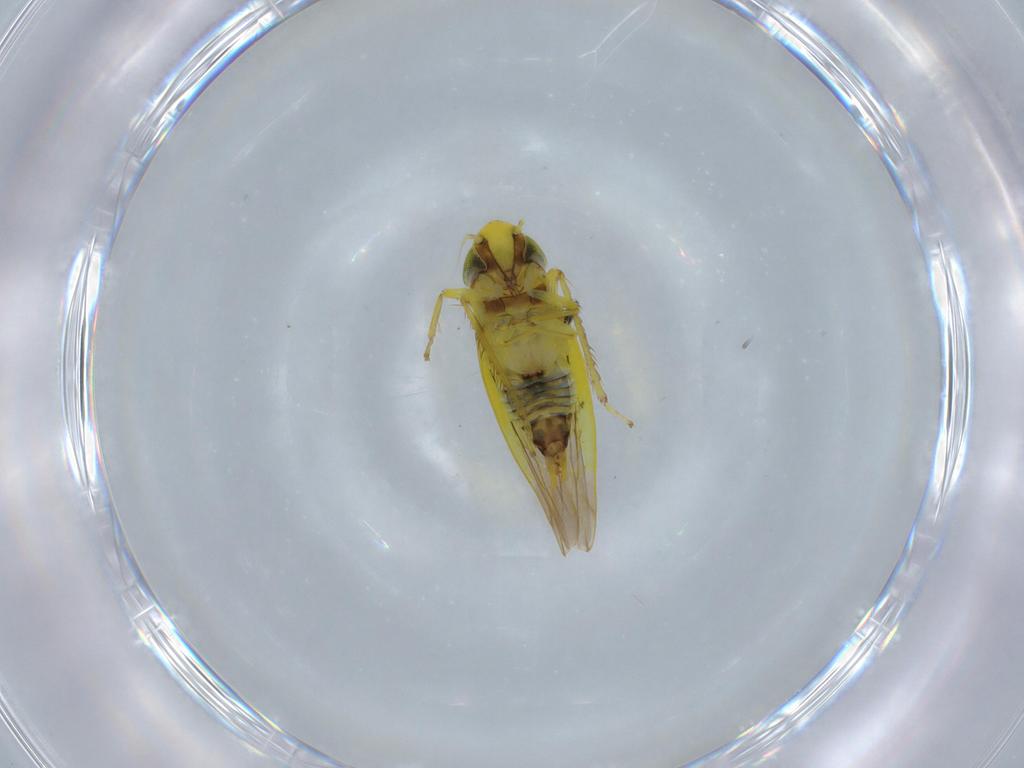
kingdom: Animalia
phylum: Arthropoda
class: Insecta
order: Hemiptera
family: Cicadellidae
